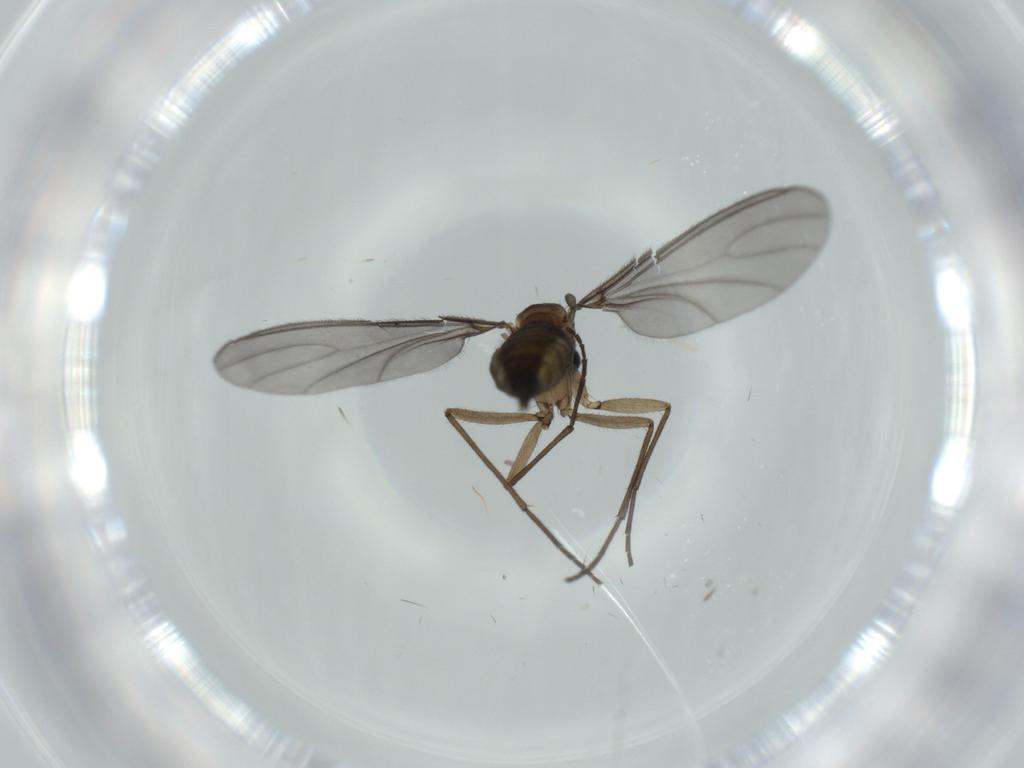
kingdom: Animalia
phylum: Arthropoda
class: Insecta
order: Diptera
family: Sciaridae
